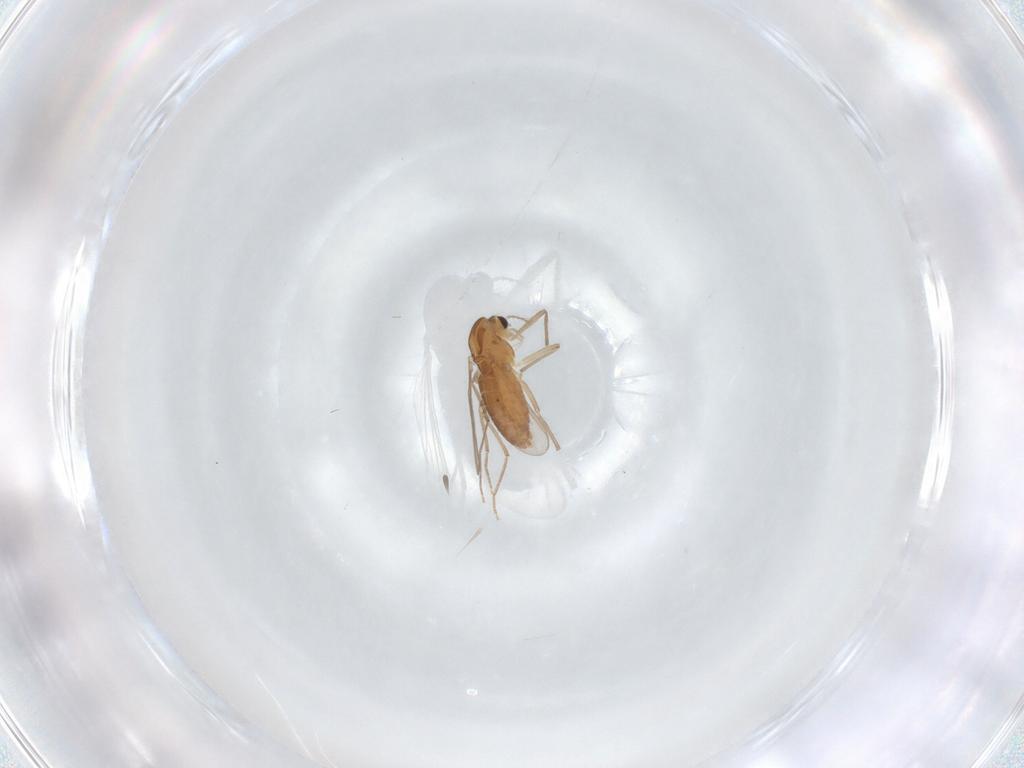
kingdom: Animalia
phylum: Arthropoda
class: Insecta
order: Diptera
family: Chironomidae
